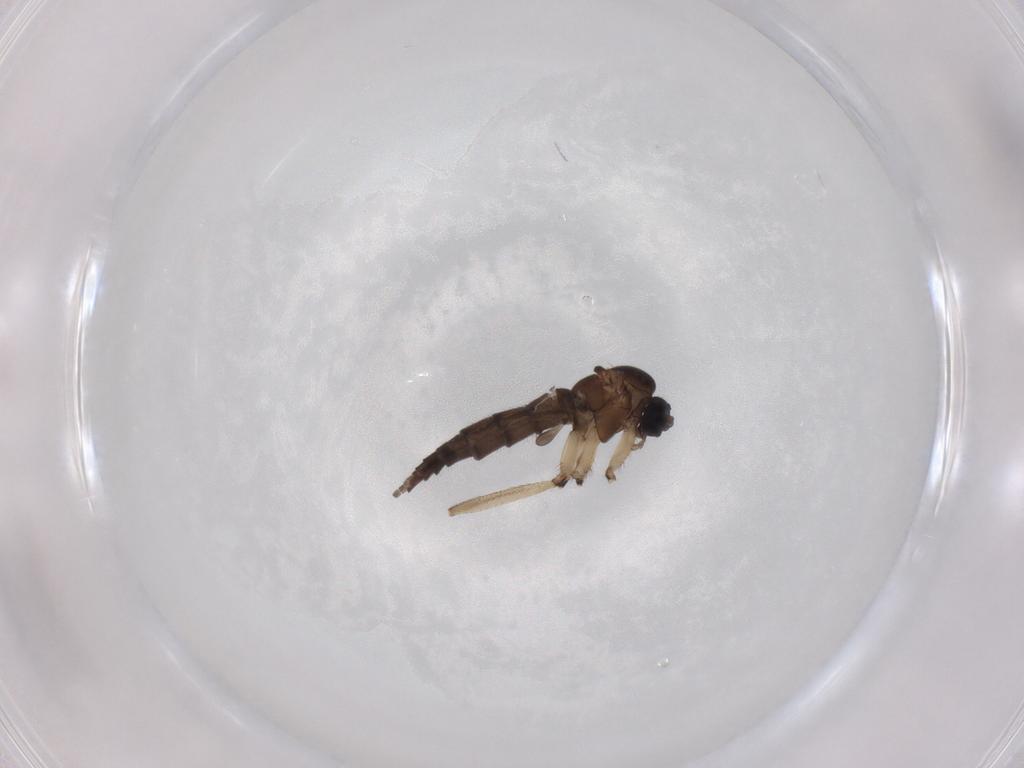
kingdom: Animalia
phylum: Arthropoda
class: Insecta
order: Diptera
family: Sciaridae
